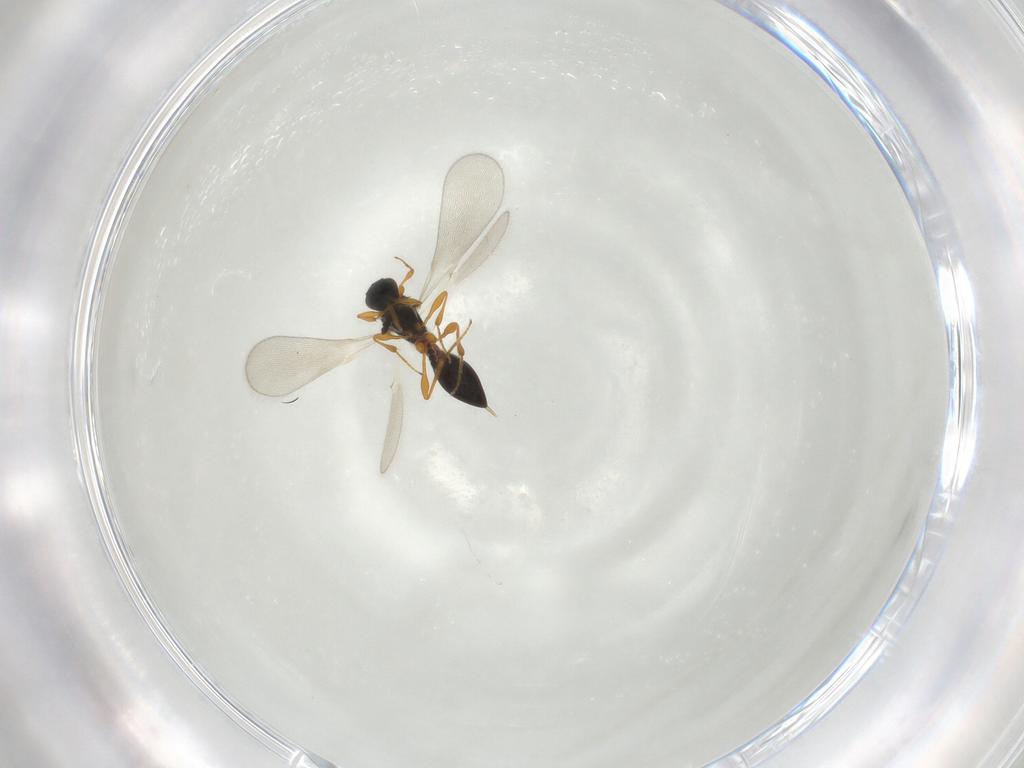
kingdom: Animalia
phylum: Arthropoda
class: Insecta
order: Hymenoptera
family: Platygastridae
